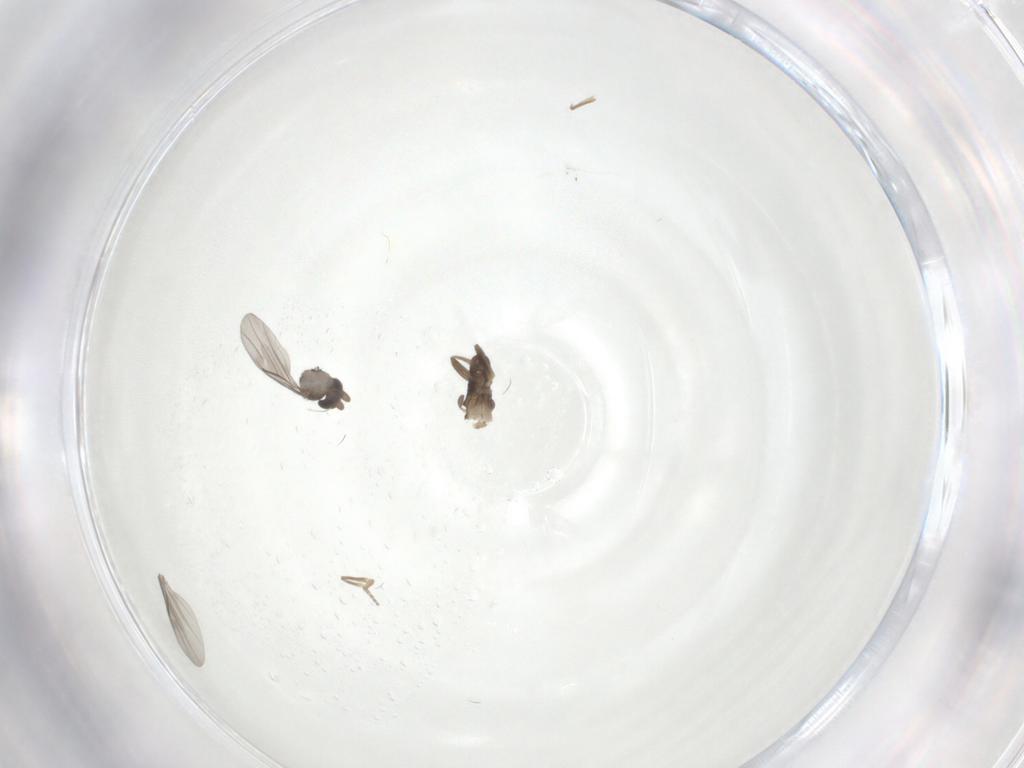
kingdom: Animalia
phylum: Arthropoda
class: Insecta
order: Diptera
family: Keroplatidae
